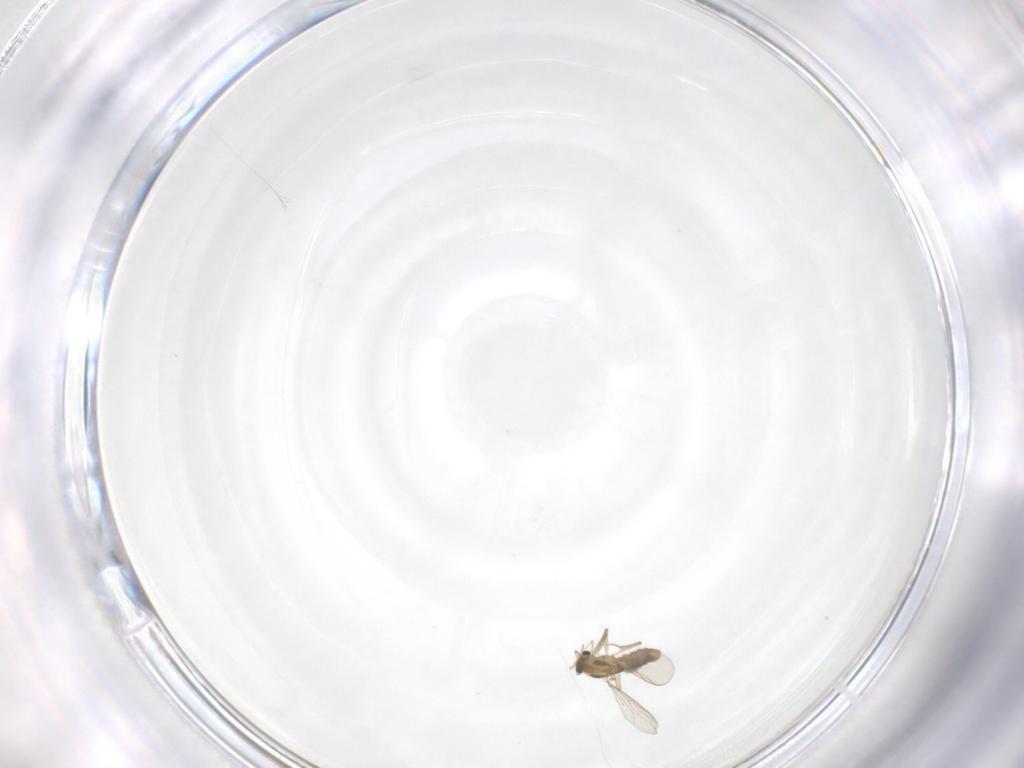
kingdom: Animalia
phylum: Arthropoda
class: Insecta
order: Diptera
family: Chironomidae
